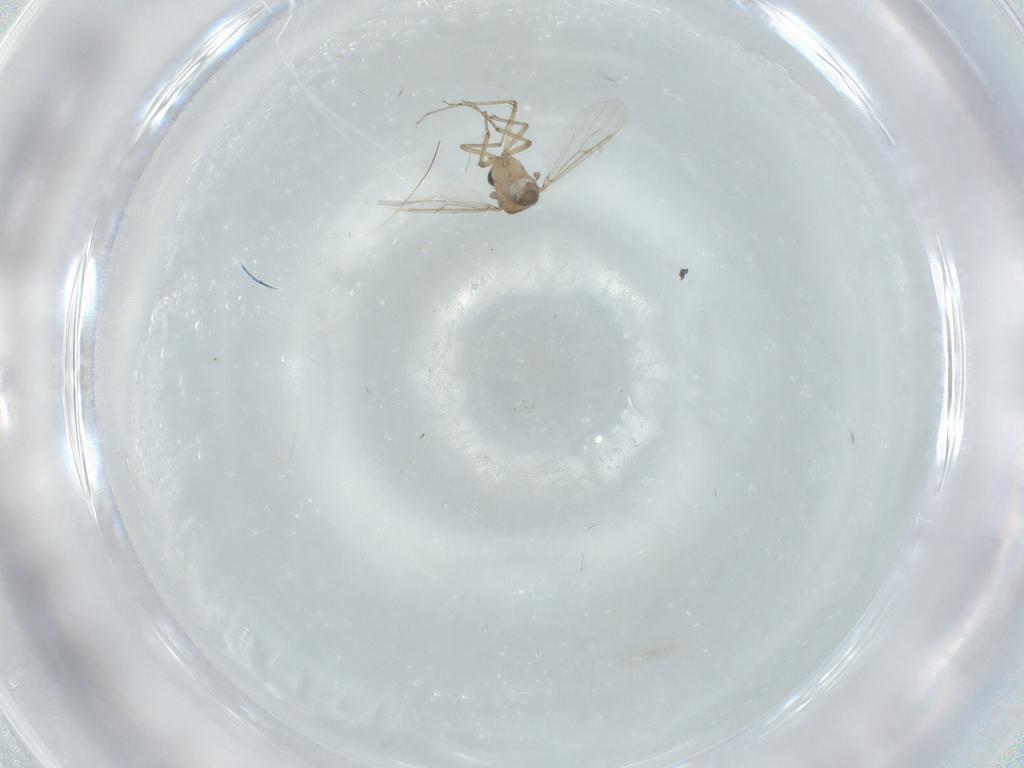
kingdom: Animalia
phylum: Arthropoda
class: Insecta
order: Diptera
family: Ceratopogonidae
